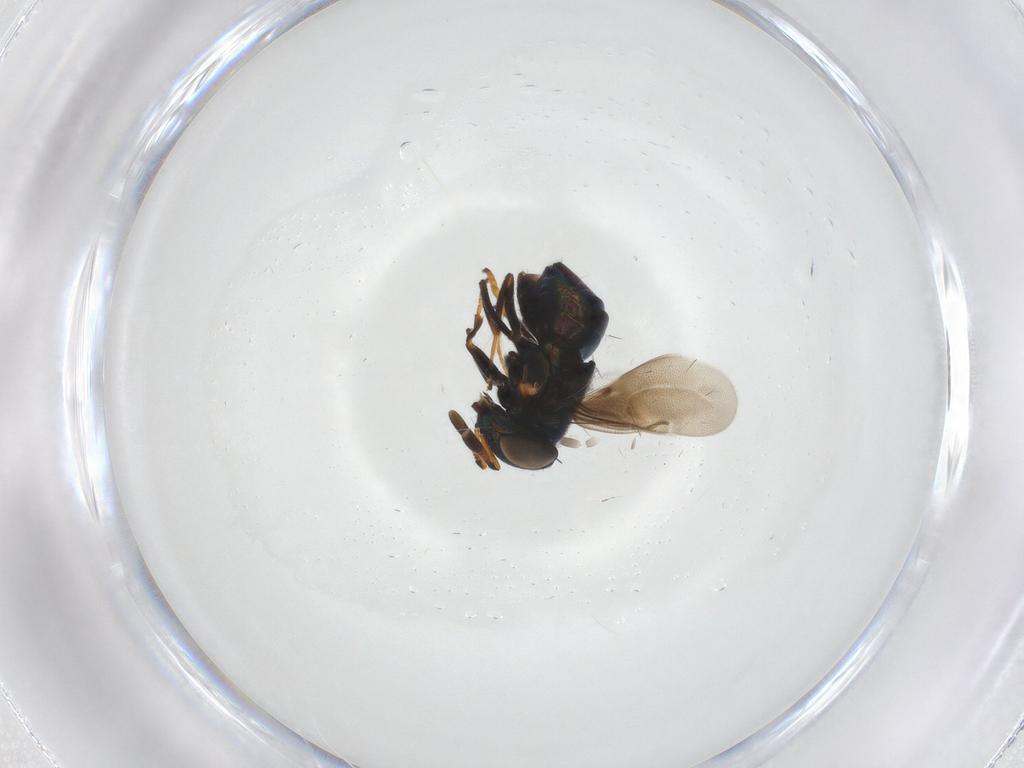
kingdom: Animalia
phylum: Arthropoda
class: Insecta
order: Hymenoptera
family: Encyrtidae
